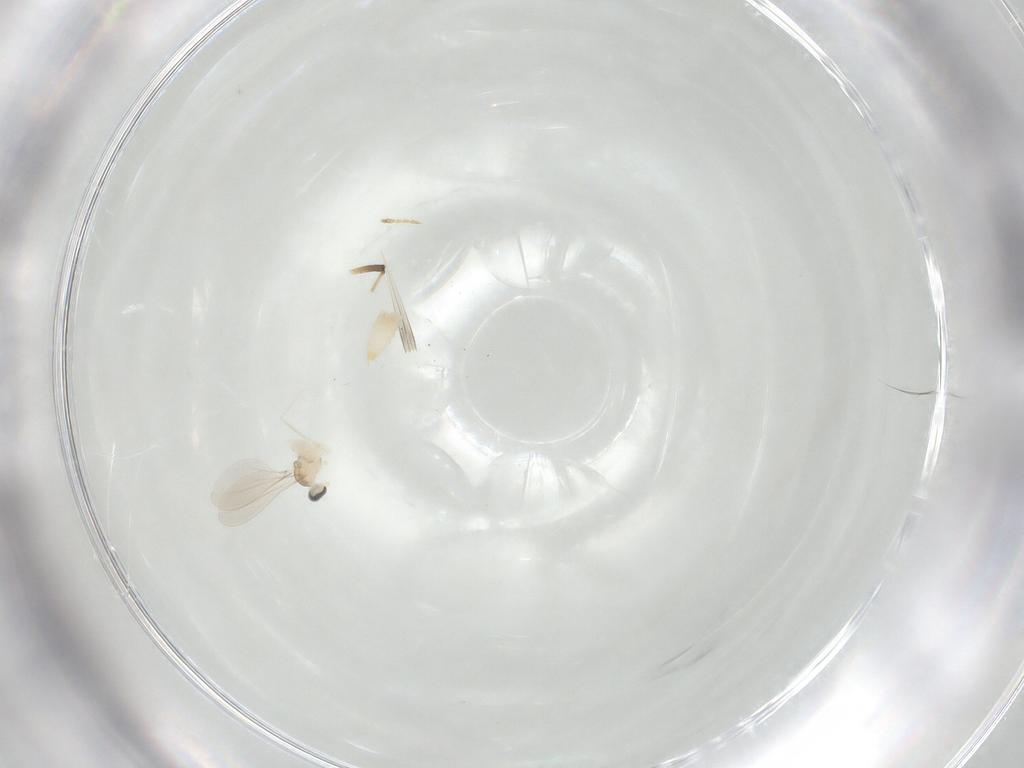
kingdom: Animalia
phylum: Arthropoda
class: Insecta
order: Diptera
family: Cecidomyiidae
